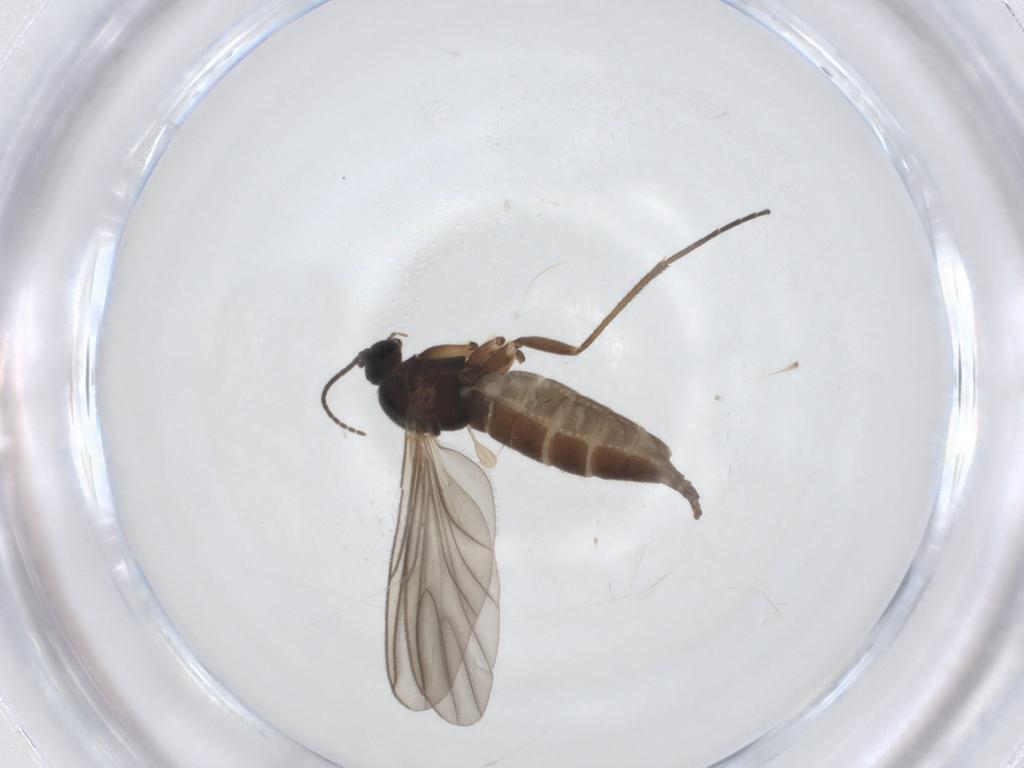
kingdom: Animalia
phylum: Arthropoda
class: Insecta
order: Diptera
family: Sciaridae
